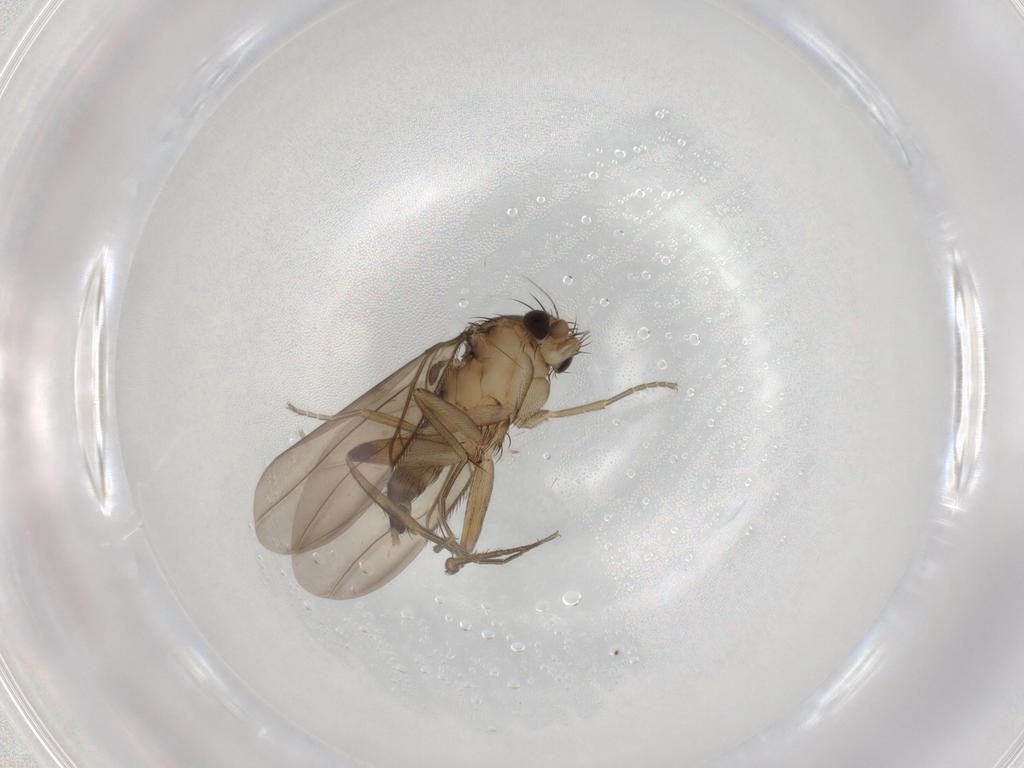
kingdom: Animalia
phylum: Arthropoda
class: Insecta
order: Diptera
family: Phoridae
